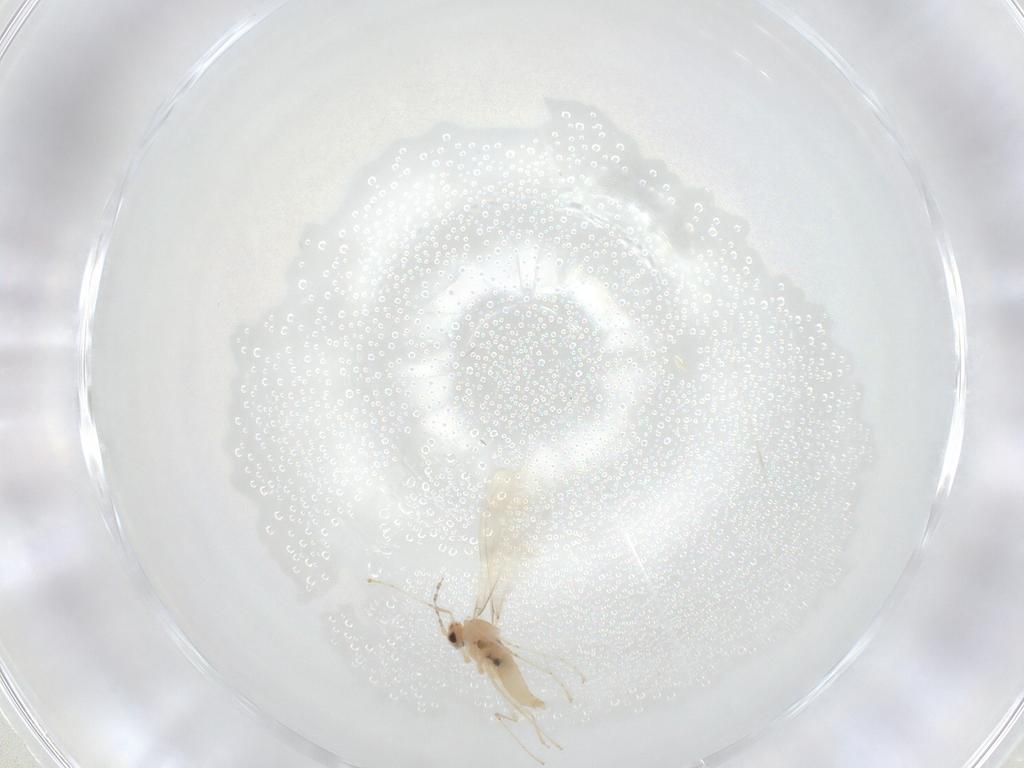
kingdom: Animalia
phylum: Arthropoda
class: Insecta
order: Diptera
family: Cecidomyiidae
